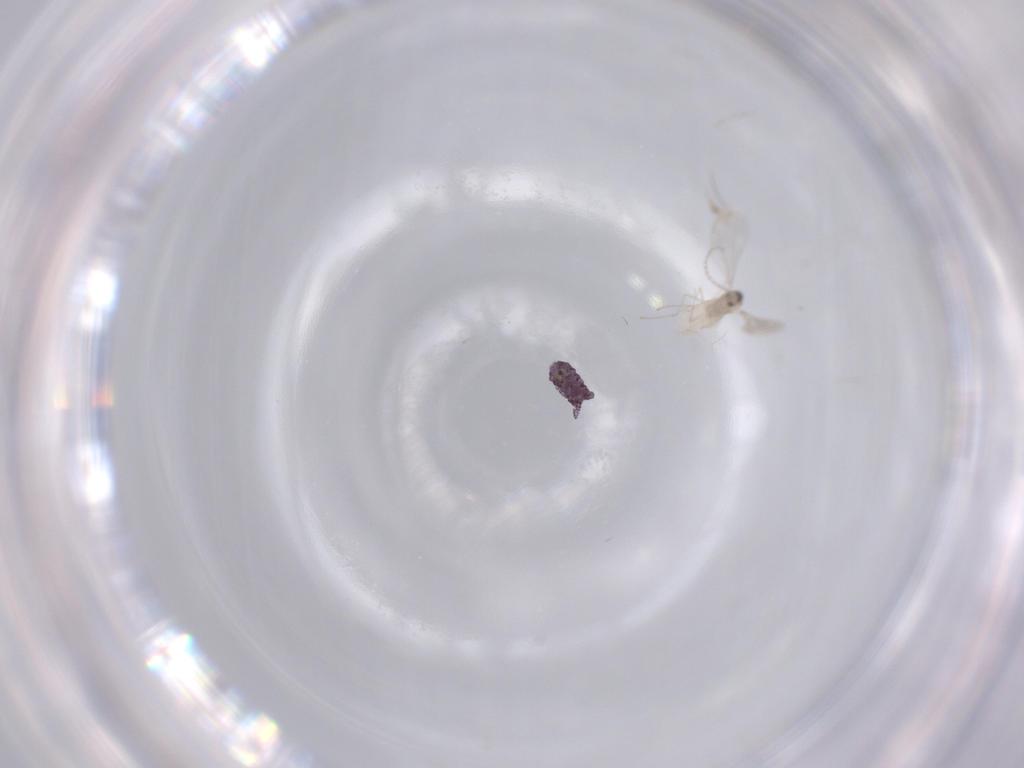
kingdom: Animalia
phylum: Arthropoda
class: Insecta
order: Diptera
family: Cecidomyiidae
